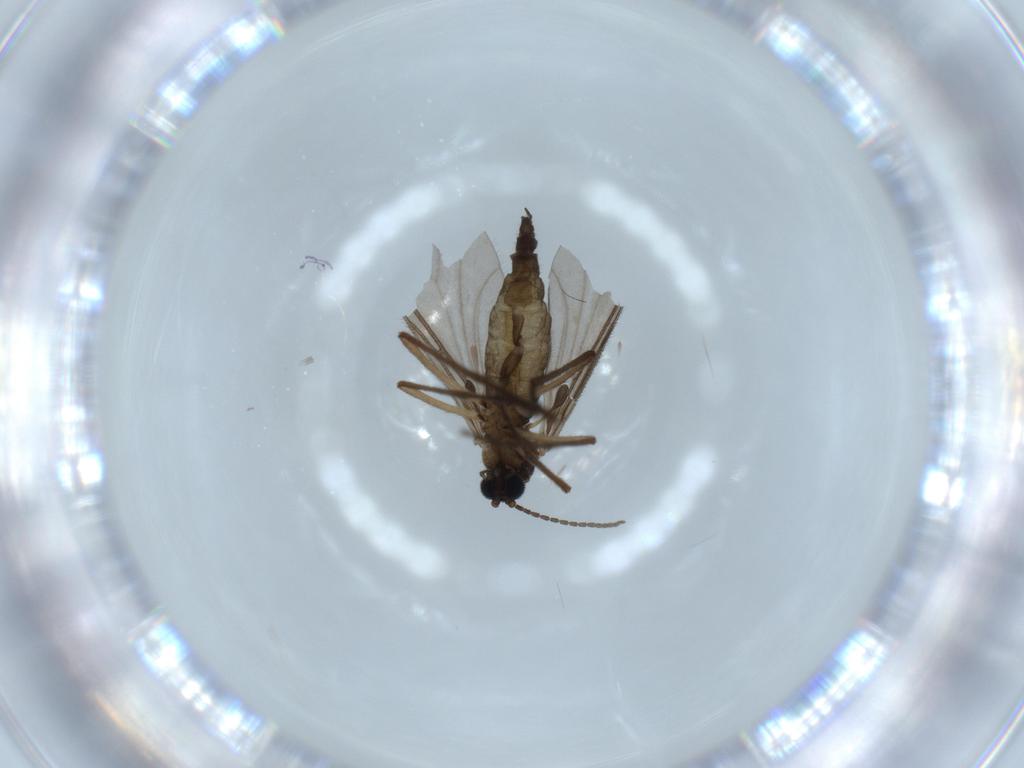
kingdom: Animalia
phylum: Arthropoda
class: Insecta
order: Diptera
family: Sciaridae
